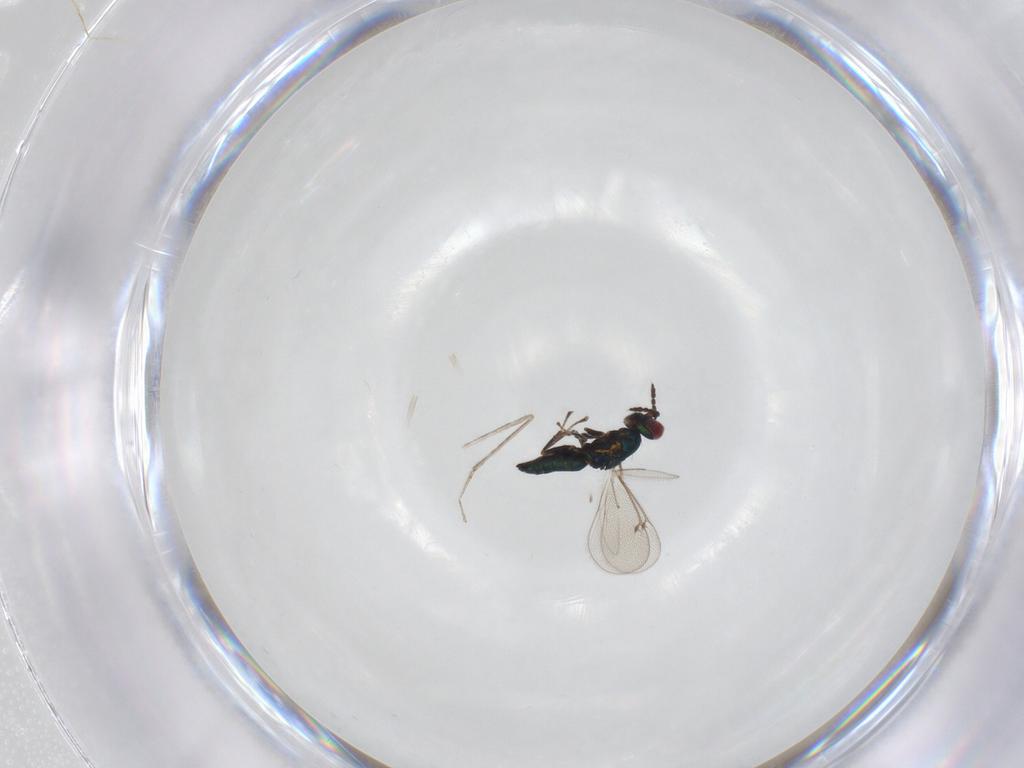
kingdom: Animalia
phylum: Arthropoda
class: Insecta
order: Hymenoptera
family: Eulophidae
